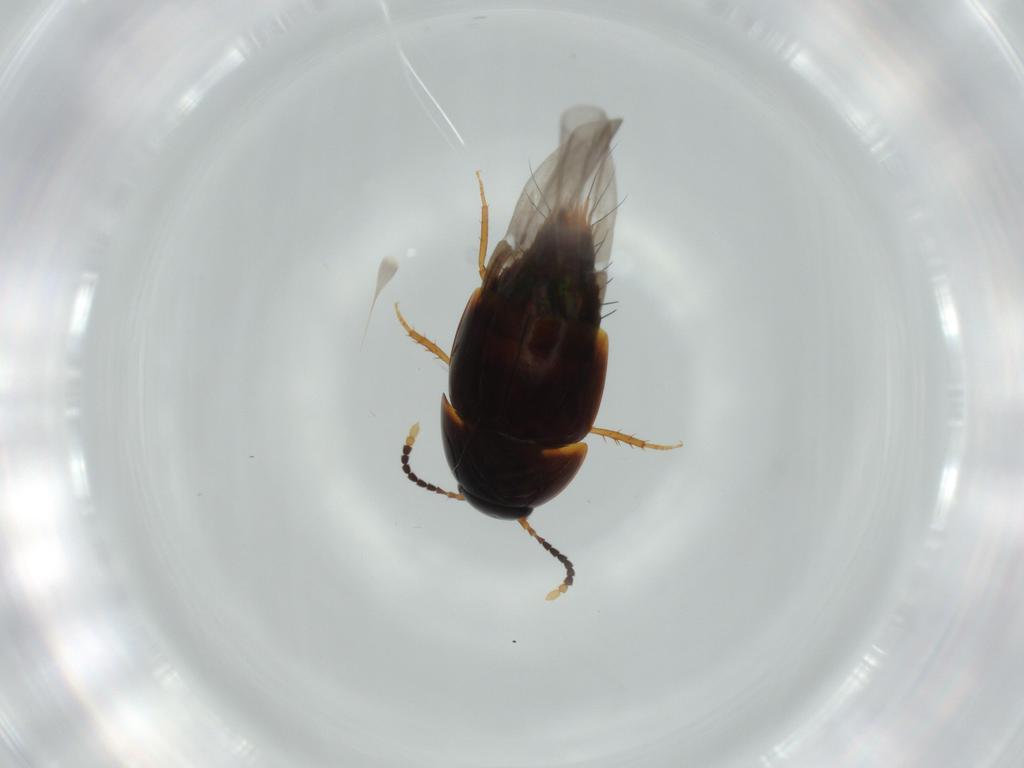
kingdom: Animalia
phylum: Arthropoda
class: Insecta
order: Coleoptera
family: Staphylinidae
